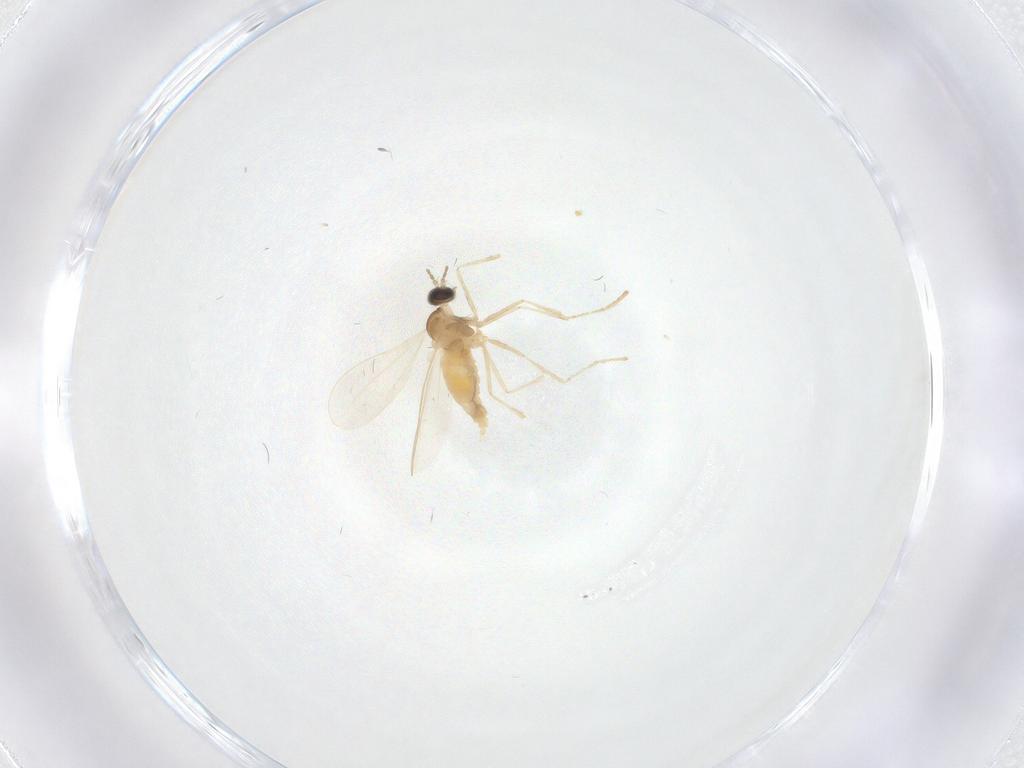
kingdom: Animalia
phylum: Arthropoda
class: Insecta
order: Diptera
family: Cecidomyiidae
